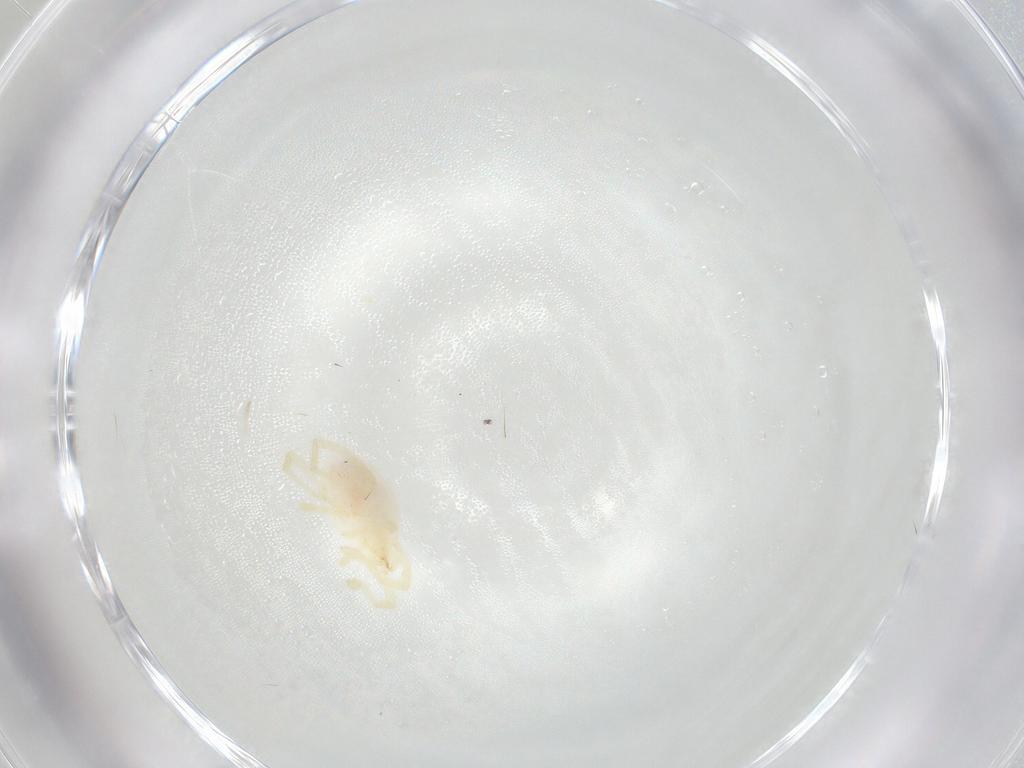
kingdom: Animalia
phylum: Arthropoda
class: Arachnida
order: Trombidiformes
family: Erythraeidae
